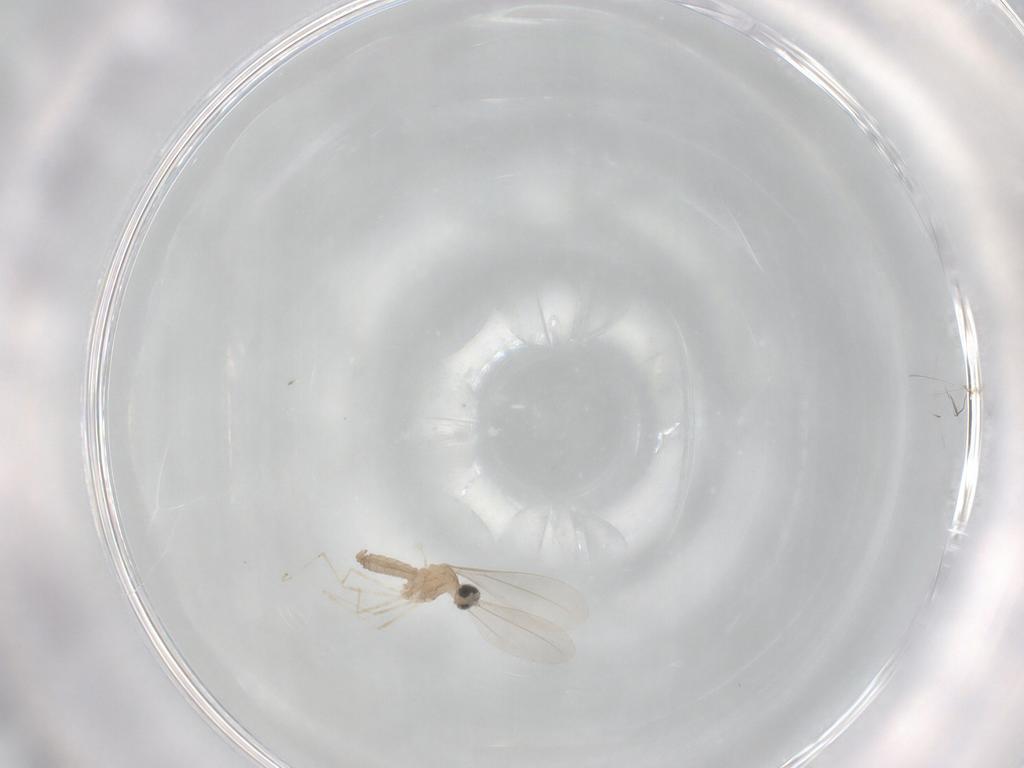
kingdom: Animalia
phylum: Arthropoda
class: Insecta
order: Diptera
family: Cecidomyiidae
